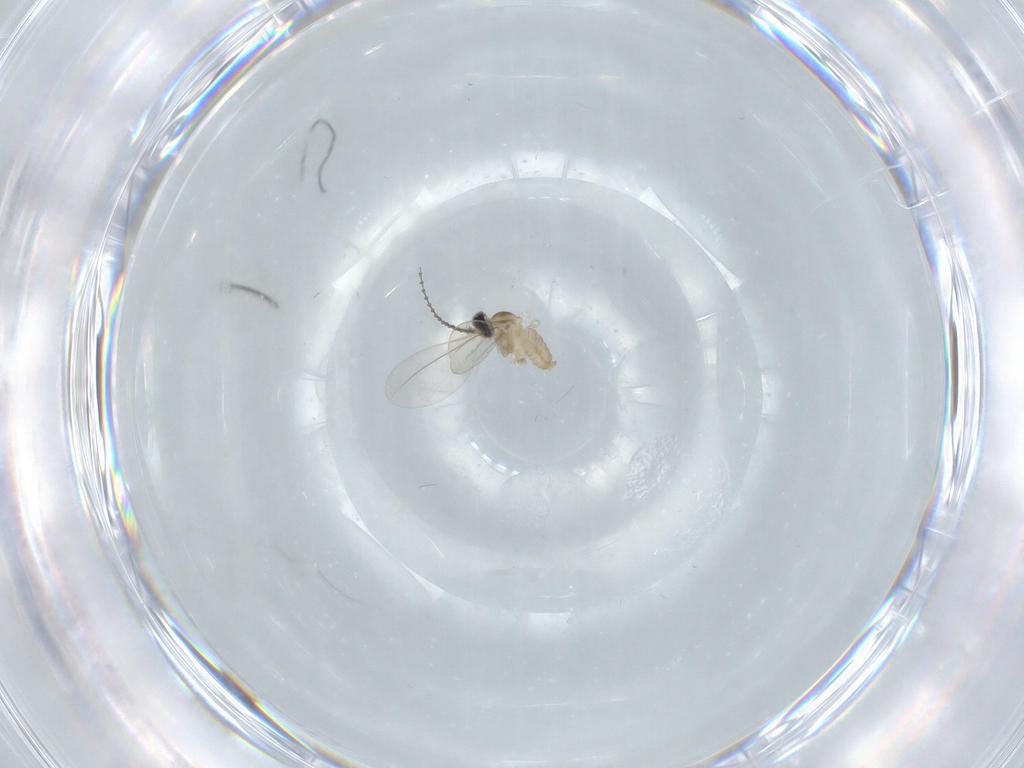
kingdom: Animalia
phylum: Arthropoda
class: Insecta
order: Diptera
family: Cecidomyiidae
